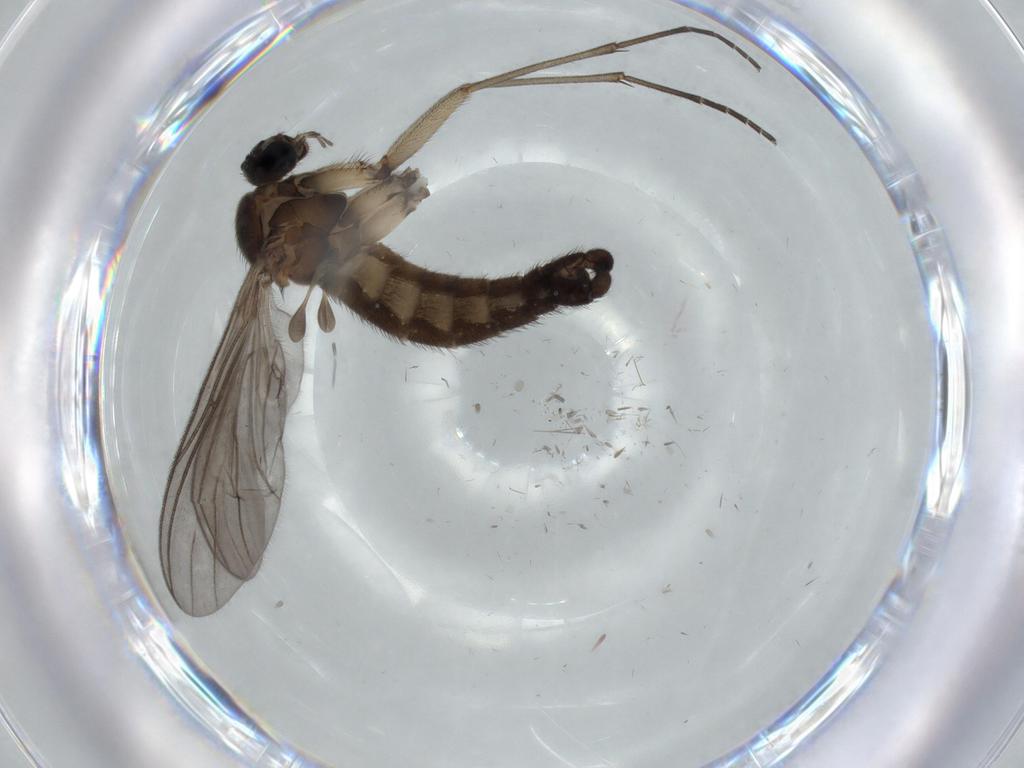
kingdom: Animalia
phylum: Arthropoda
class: Insecta
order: Diptera
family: Sciaridae
